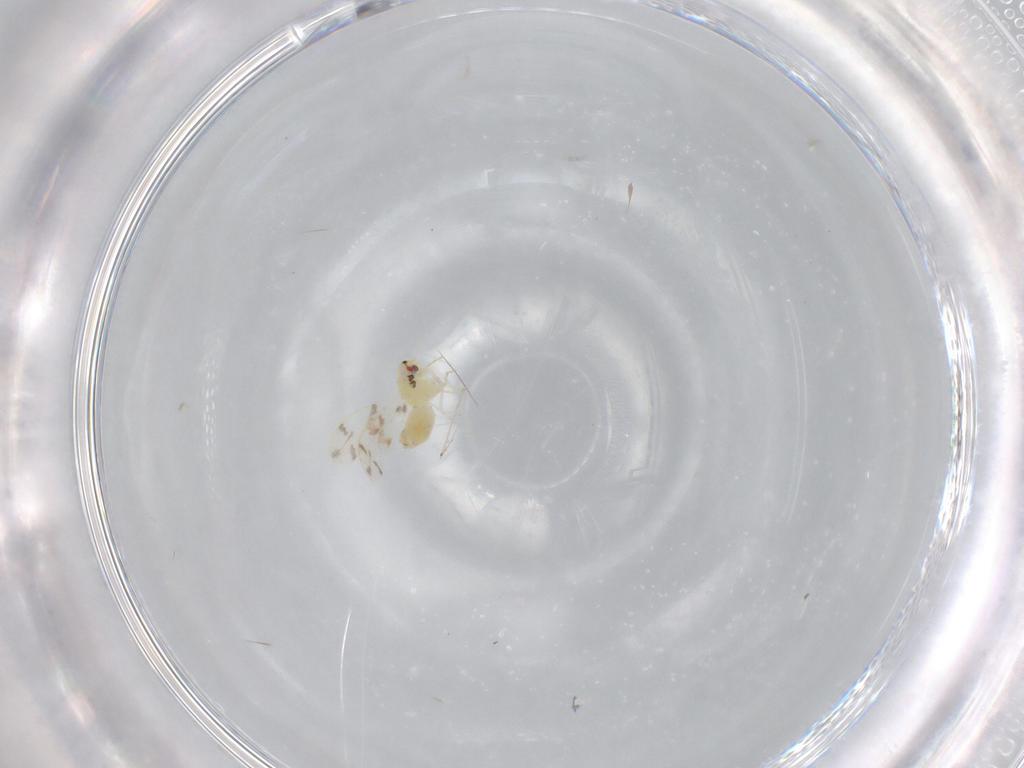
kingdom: Animalia
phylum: Arthropoda
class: Insecta
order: Hemiptera
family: Aleyrodidae
